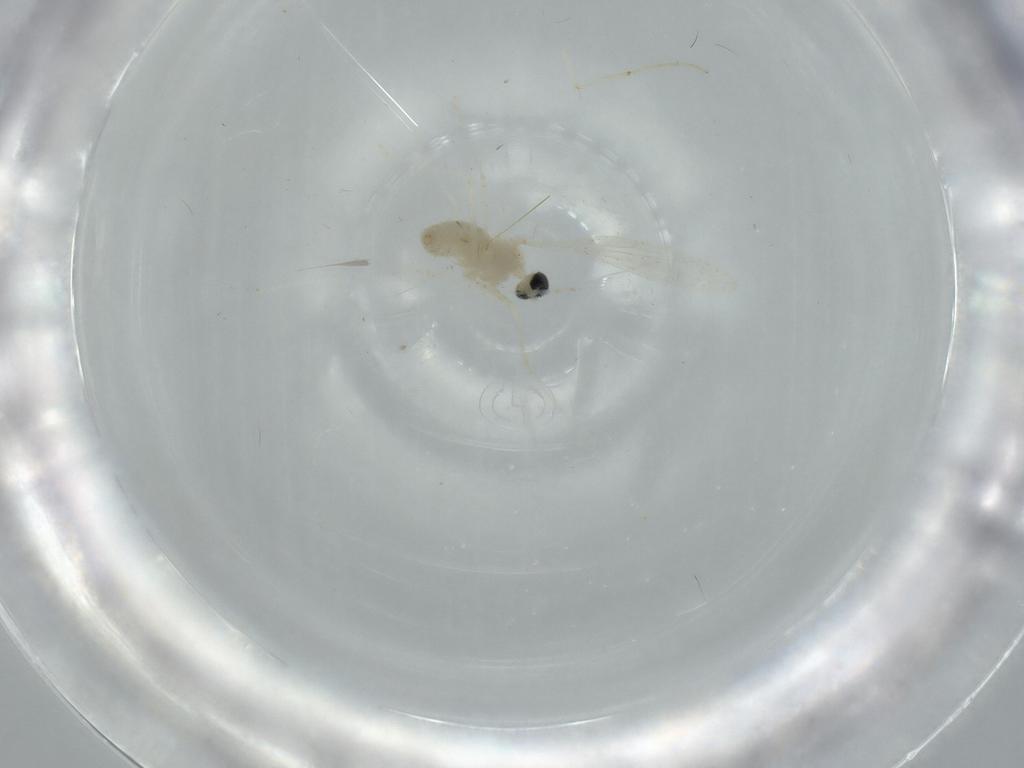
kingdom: Animalia
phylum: Arthropoda
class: Insecta
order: Diptera
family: Cecidomyiidae
